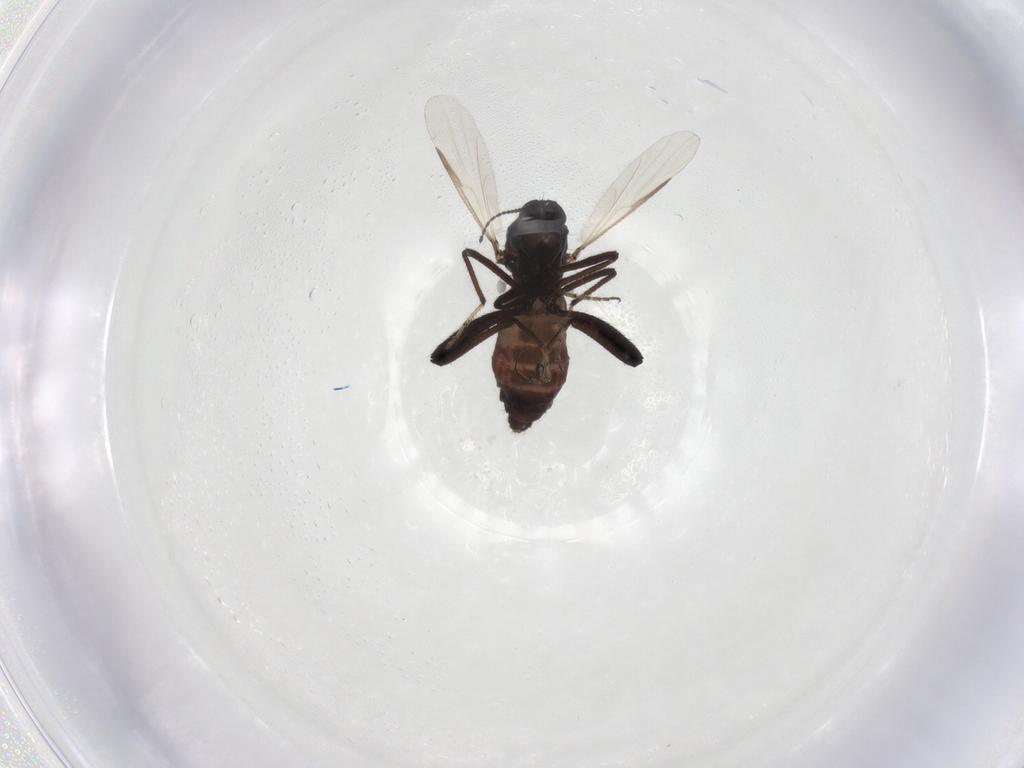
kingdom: Animalia
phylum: Arthropoda
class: Insecta
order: Diptera
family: Ceratopogonidae
